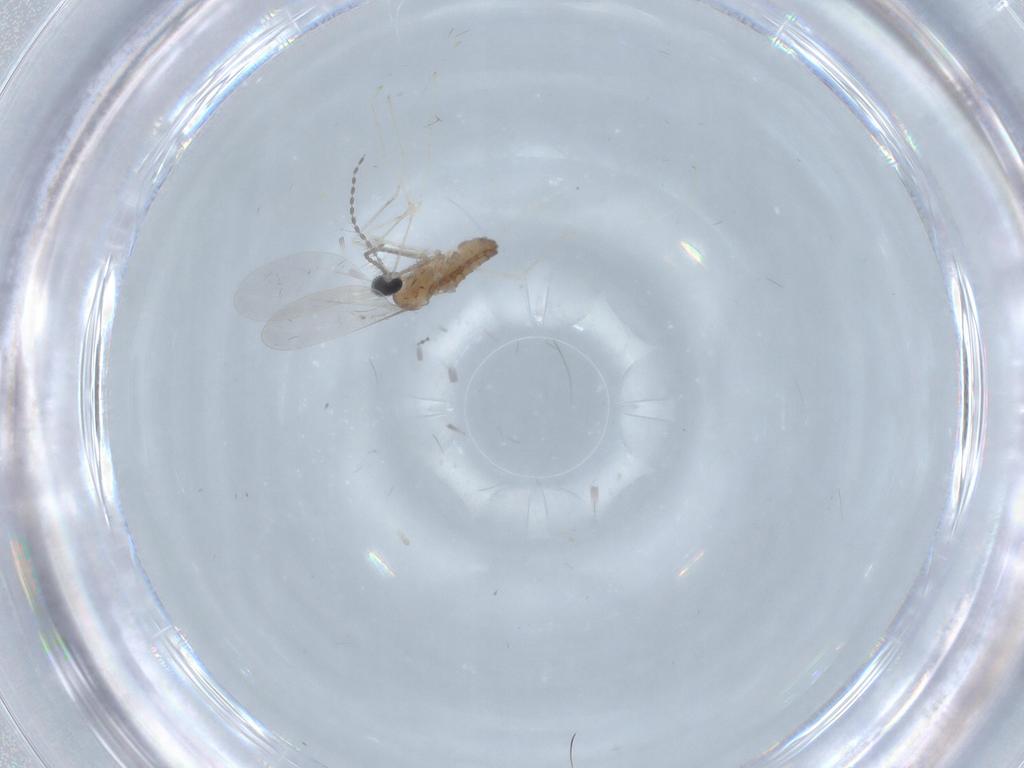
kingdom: Animalia
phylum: Arthropoda
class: Insecta
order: Diptera
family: Cecidomyiidae
